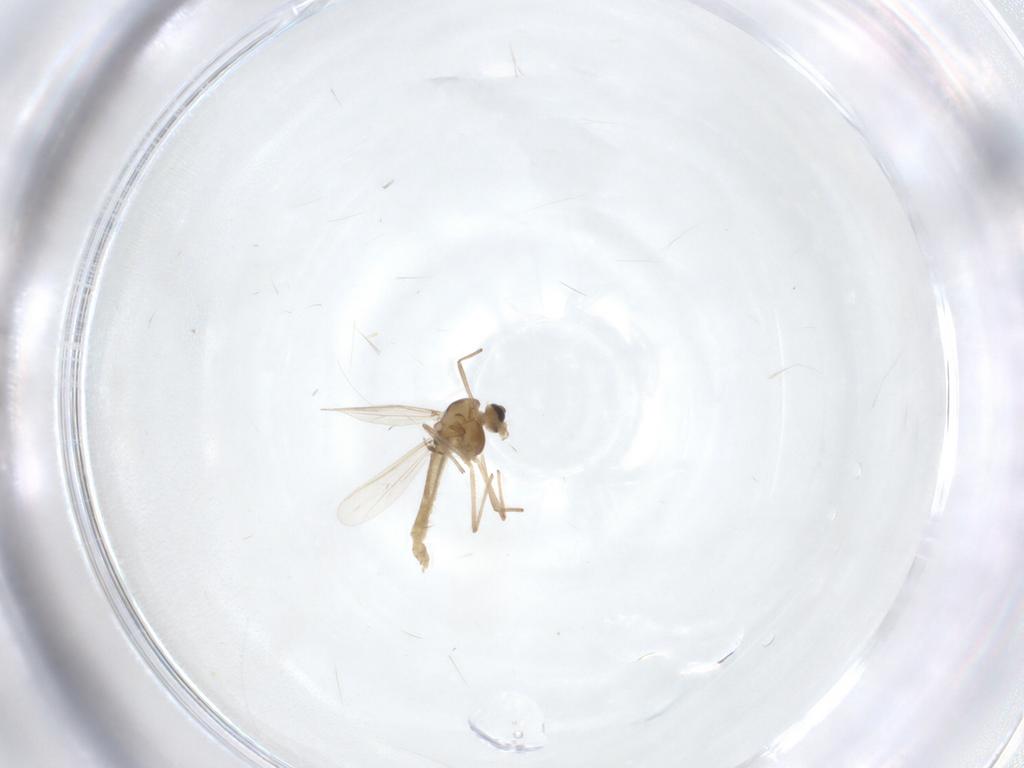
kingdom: Animalia
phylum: Arthropoda
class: Insecta
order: Diptera
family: Chironomidae
